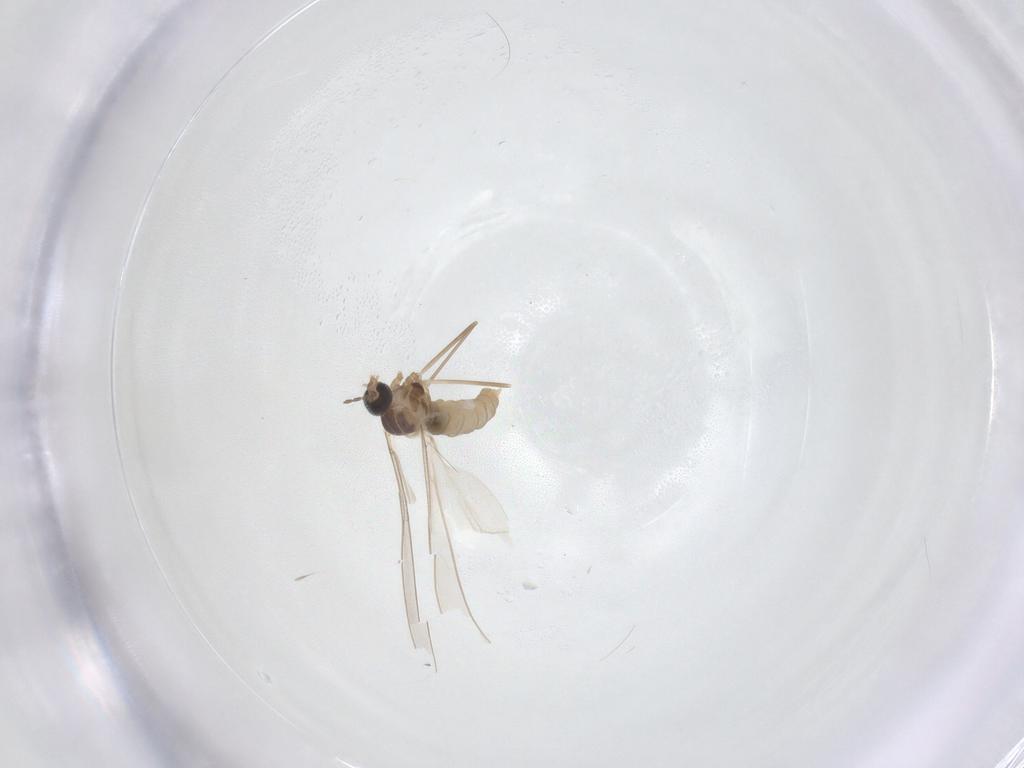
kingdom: Animalia
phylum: Arthropoda
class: Insecta
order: Diptera
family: Cecidomyiidae
